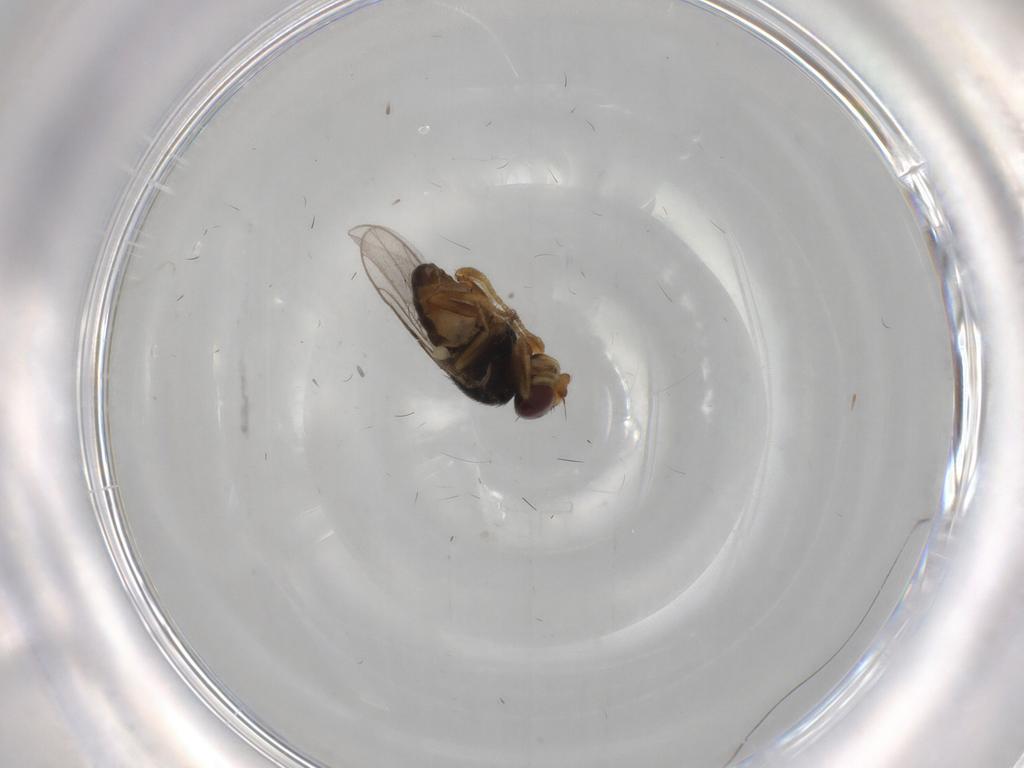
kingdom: Animalia
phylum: Arthropoda
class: Insecta
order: Diptera
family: Chloropidae
